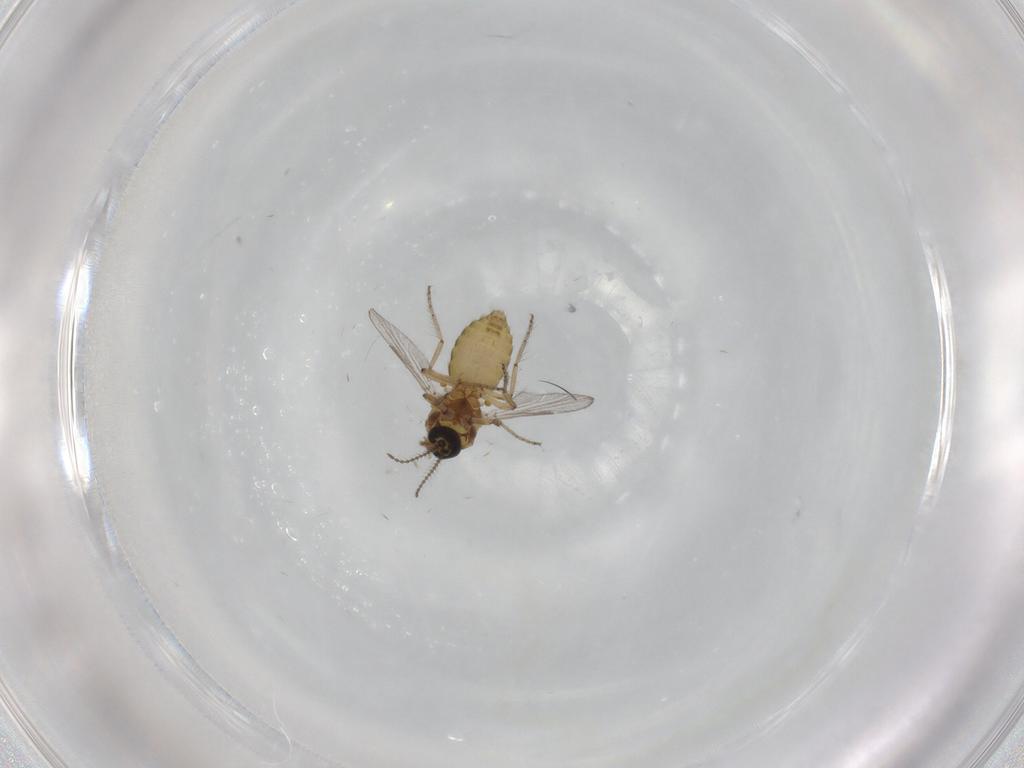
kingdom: Animalia
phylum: Arthropoda
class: Insecta
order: Diptera
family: Ceratopogonidae
